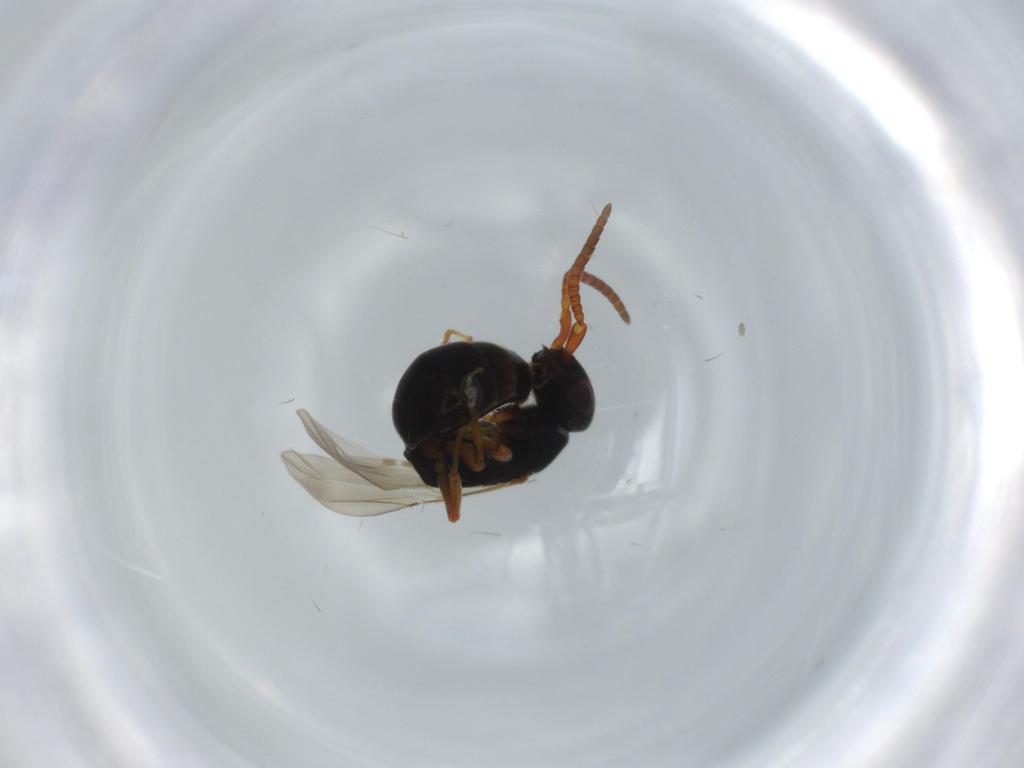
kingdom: Animalia
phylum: Arthropoda
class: Insecta
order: Hymenoptera
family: Bethylidae
